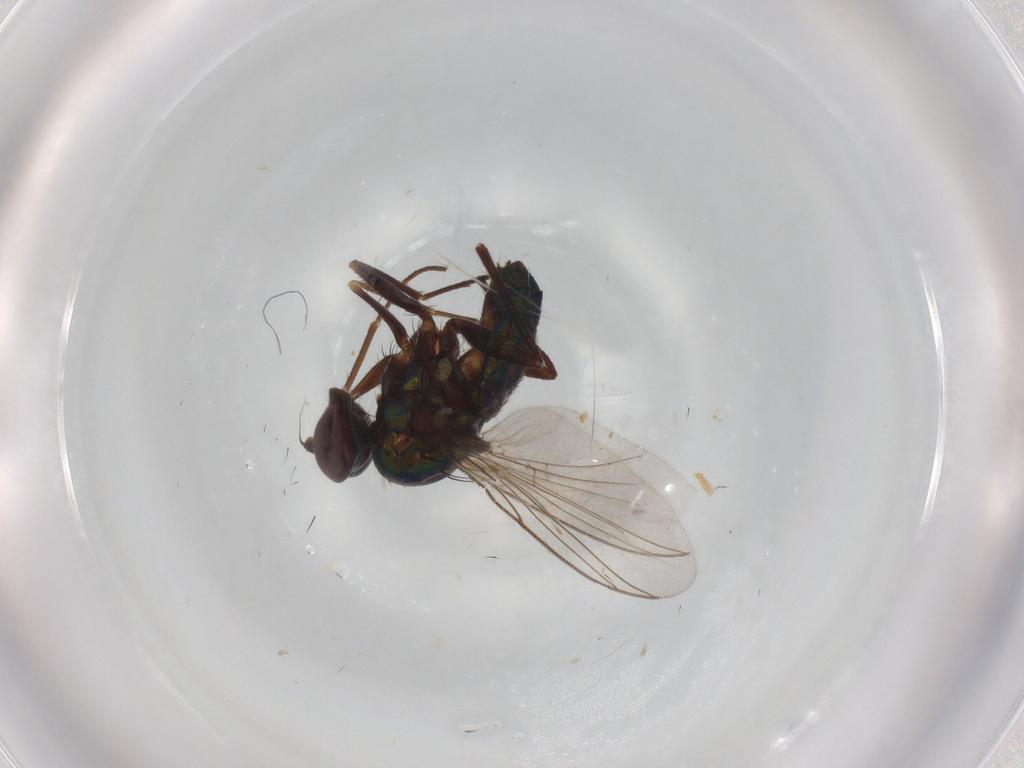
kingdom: Animalia
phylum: Arthropoda
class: Insecta
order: Diptera
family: Dolichopodidae
